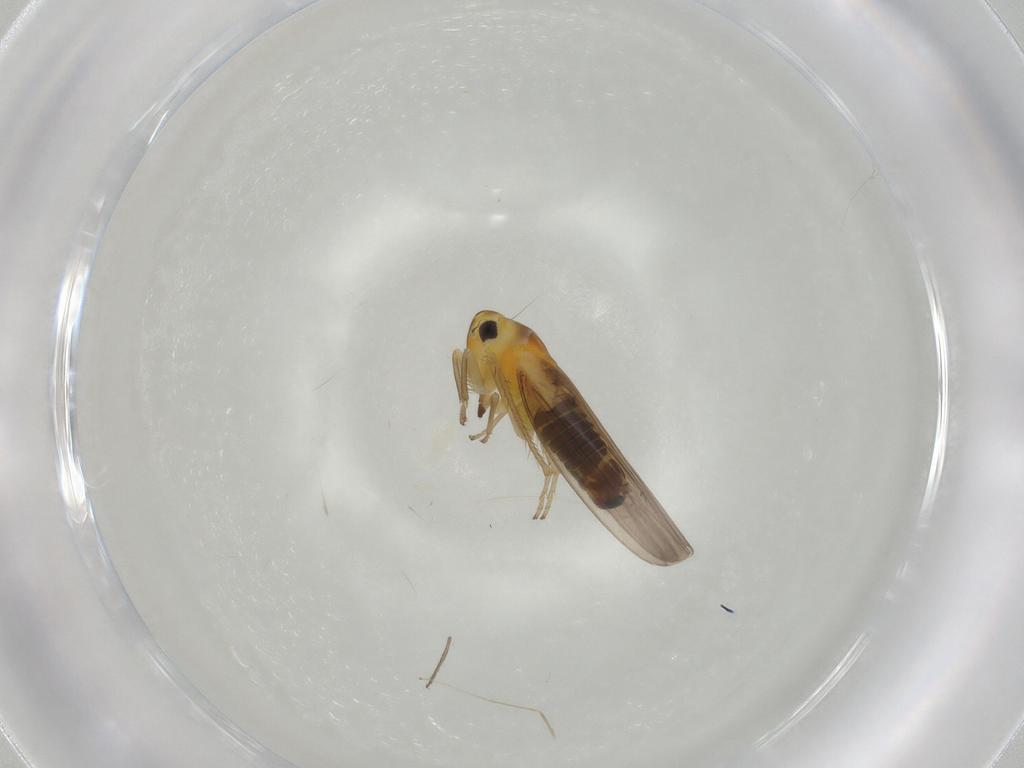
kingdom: Animalia
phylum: Arthropoda
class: Insecta
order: Hemiptera
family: Cicadellidae
